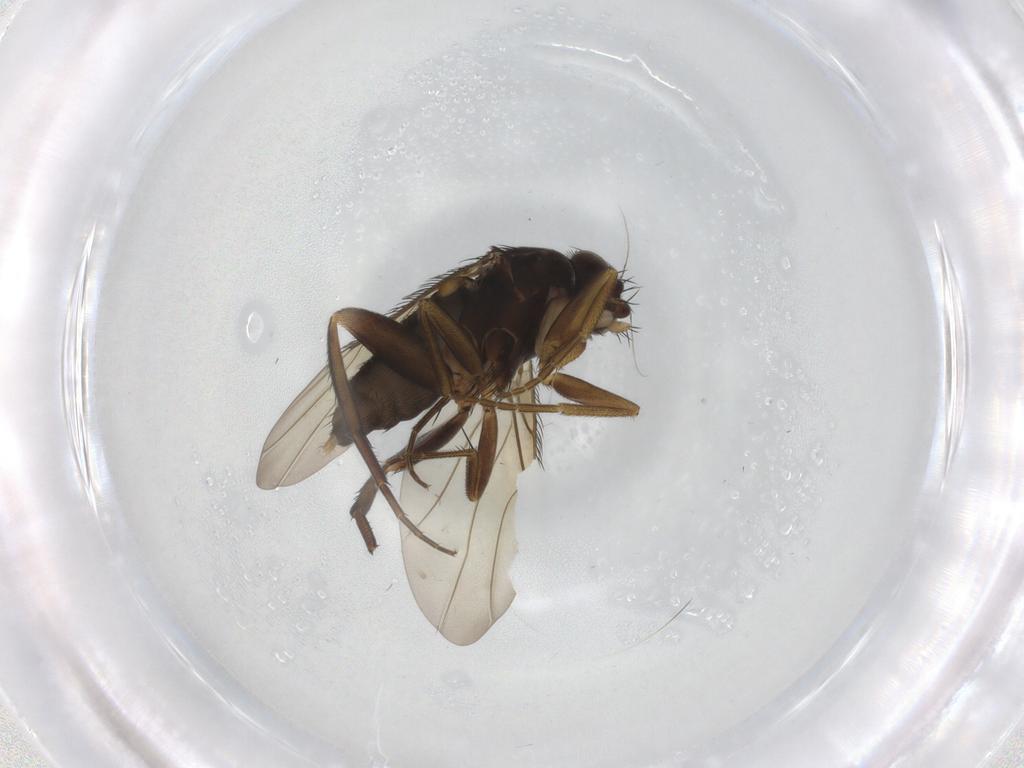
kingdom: Animalia
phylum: Arthropoda
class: Insecta
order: Diptera
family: Phoridae
